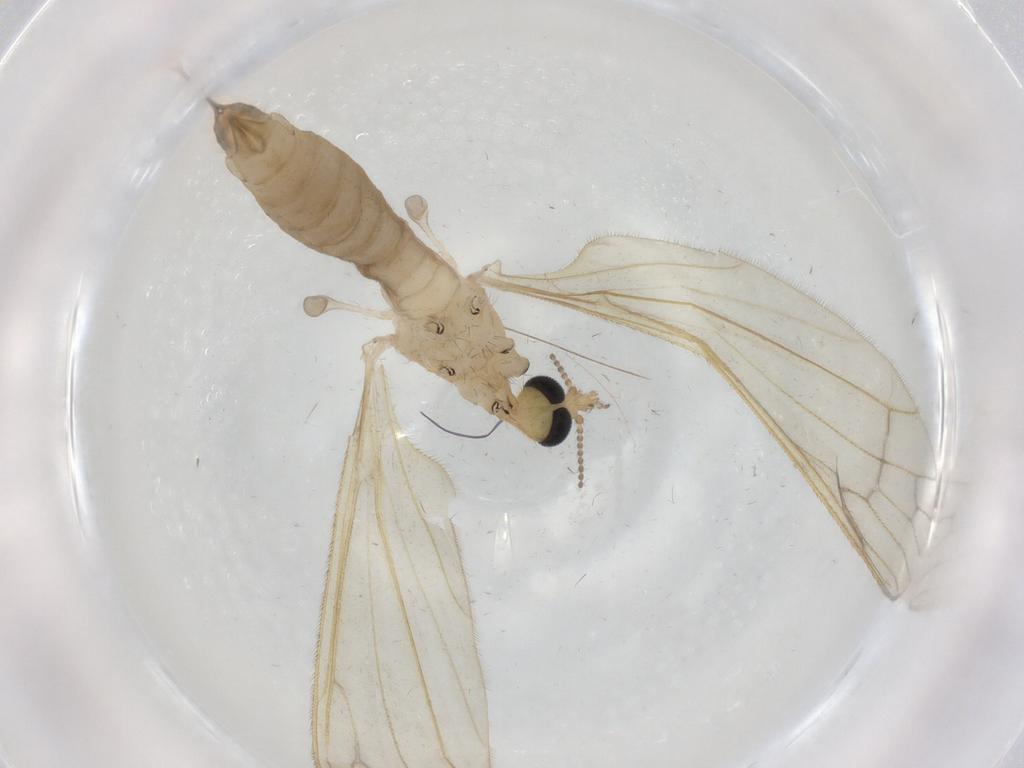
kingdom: Animalia
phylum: Arthropoda
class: Insecta
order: Diptera
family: Limoniidae
